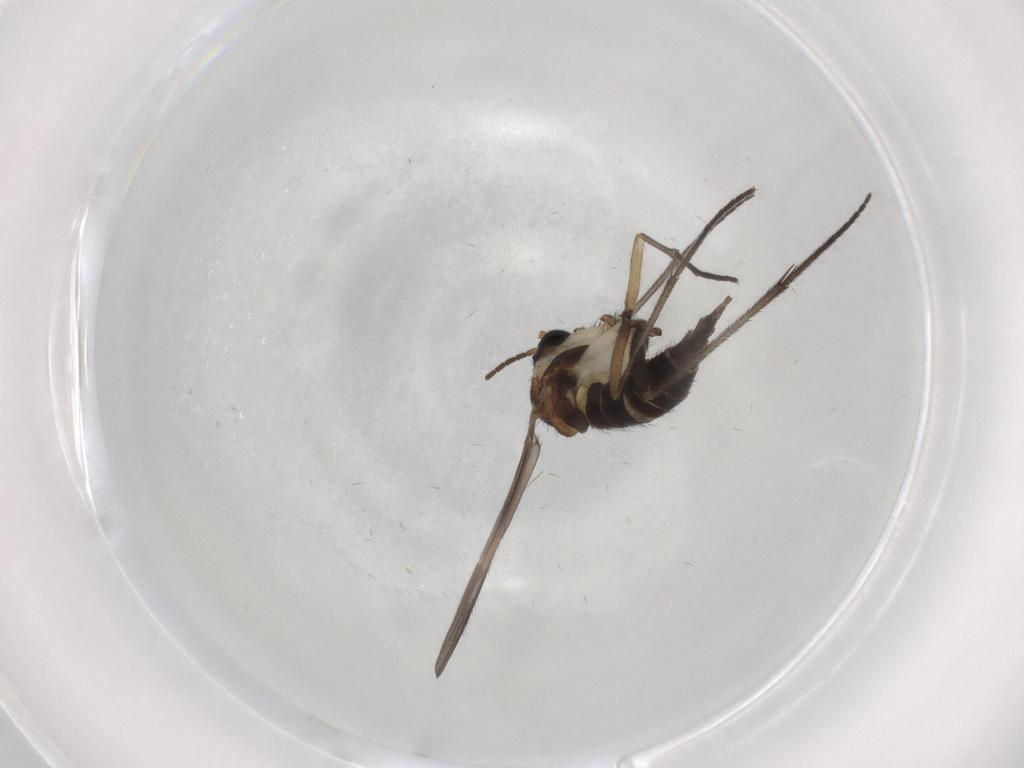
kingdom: Animalia
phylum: Arthropoda
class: Insecta
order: Diptera
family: Sciaridae
